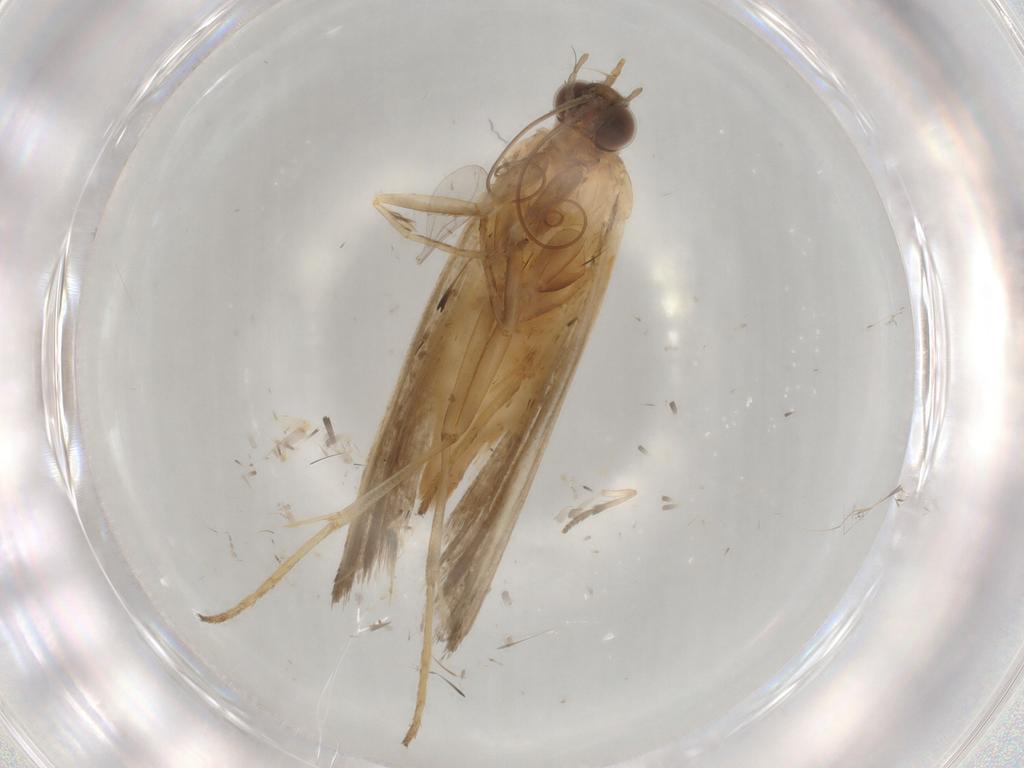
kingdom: Animalia
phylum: Arthropoda
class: Insecta
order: Lepidoptera
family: Noctuidae
